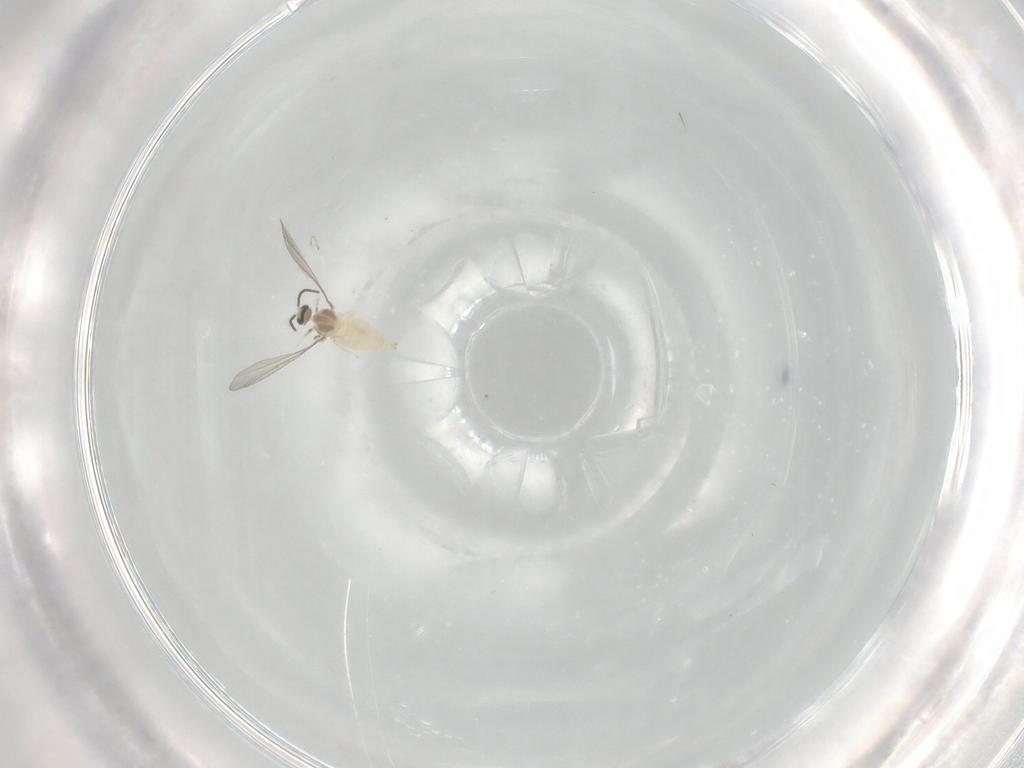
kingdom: Animalia
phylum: Arthropoda
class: Insecta
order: Diptera
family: Cecidomyiidae
